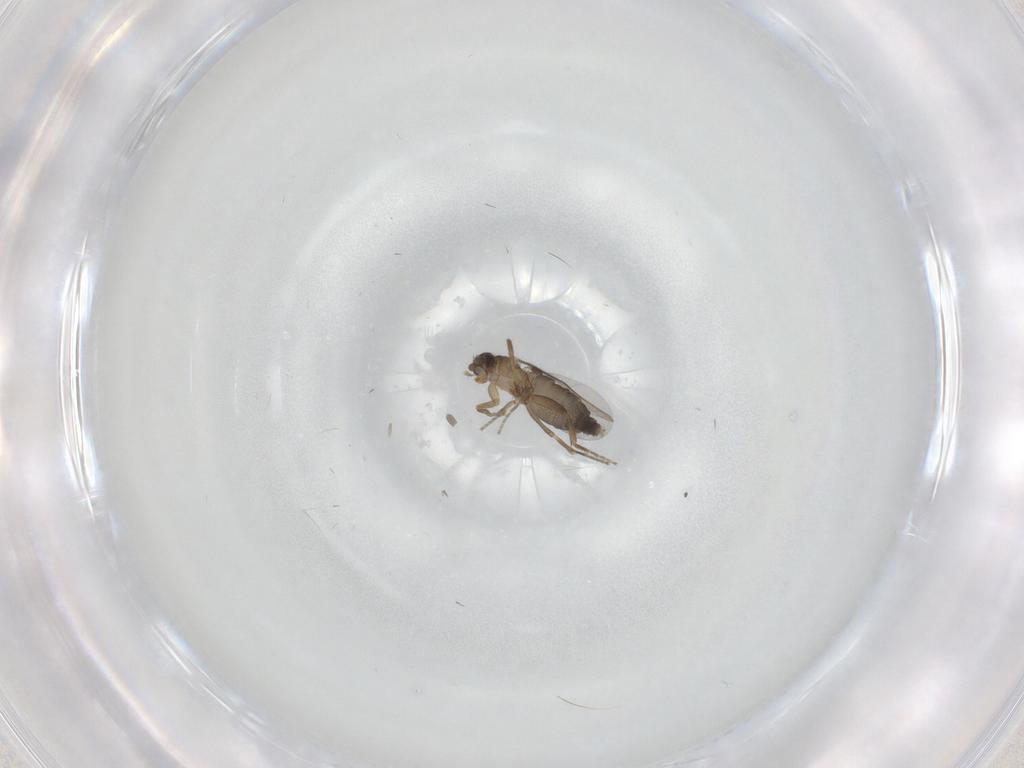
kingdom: Animalia
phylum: Arthropoda
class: Insecta
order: Diptera
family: Phoridae
